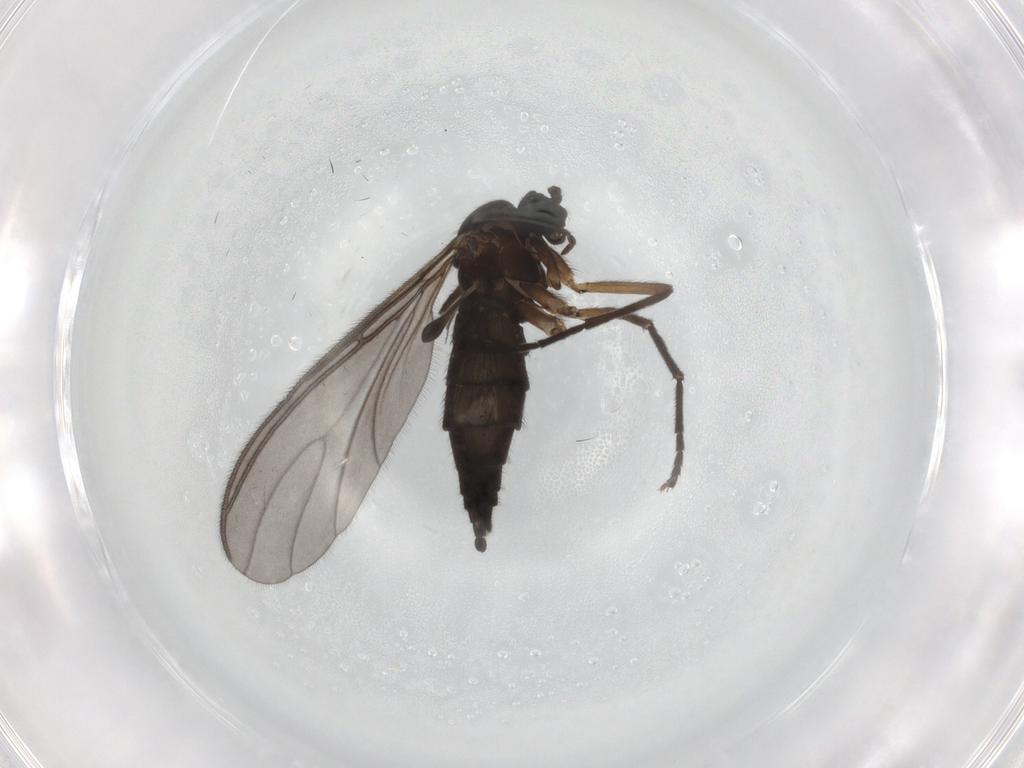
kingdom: Animalia
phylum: Arthropoda
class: Insecta
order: Diptera
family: Sciaridae
